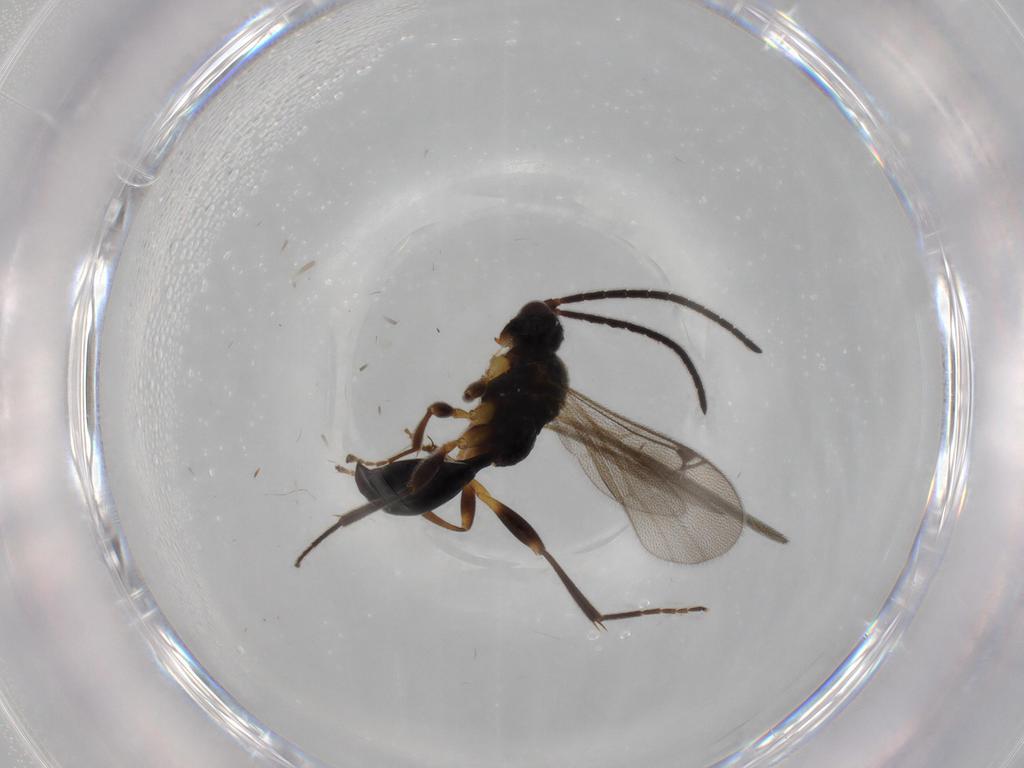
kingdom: Animalia
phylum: Arthropoda
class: Insecta
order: Hymenoptera
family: Proctotrupidae
